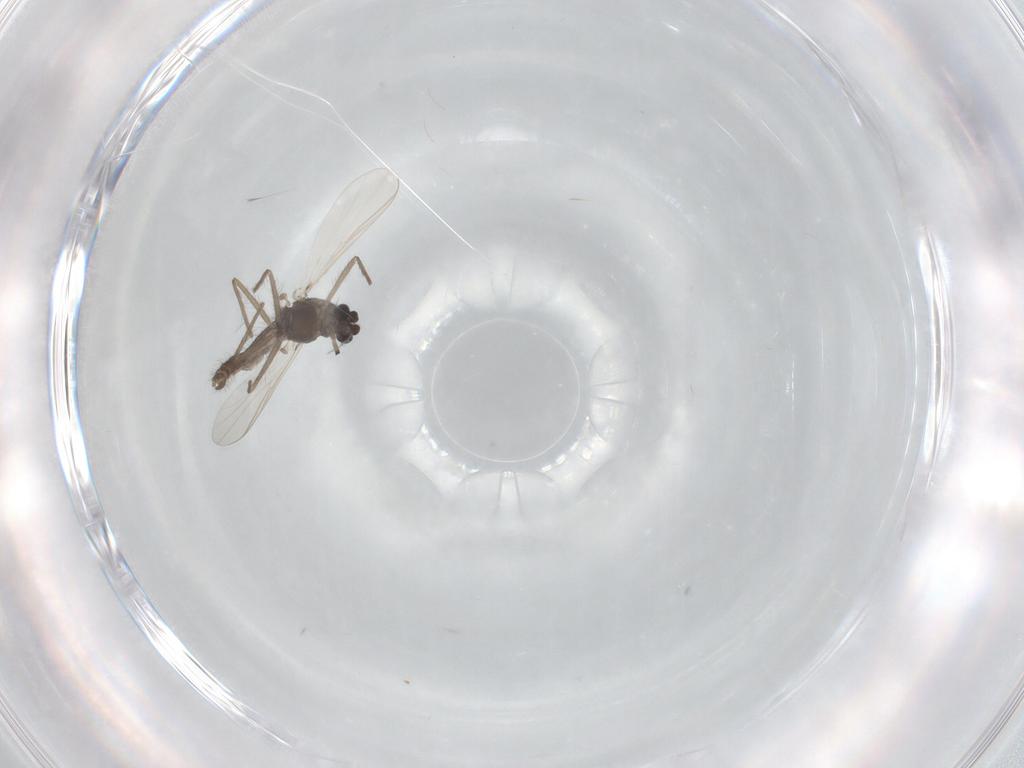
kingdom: Animalia
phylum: Arthropoda
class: Insecta
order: Diptera
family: Chironomidae
